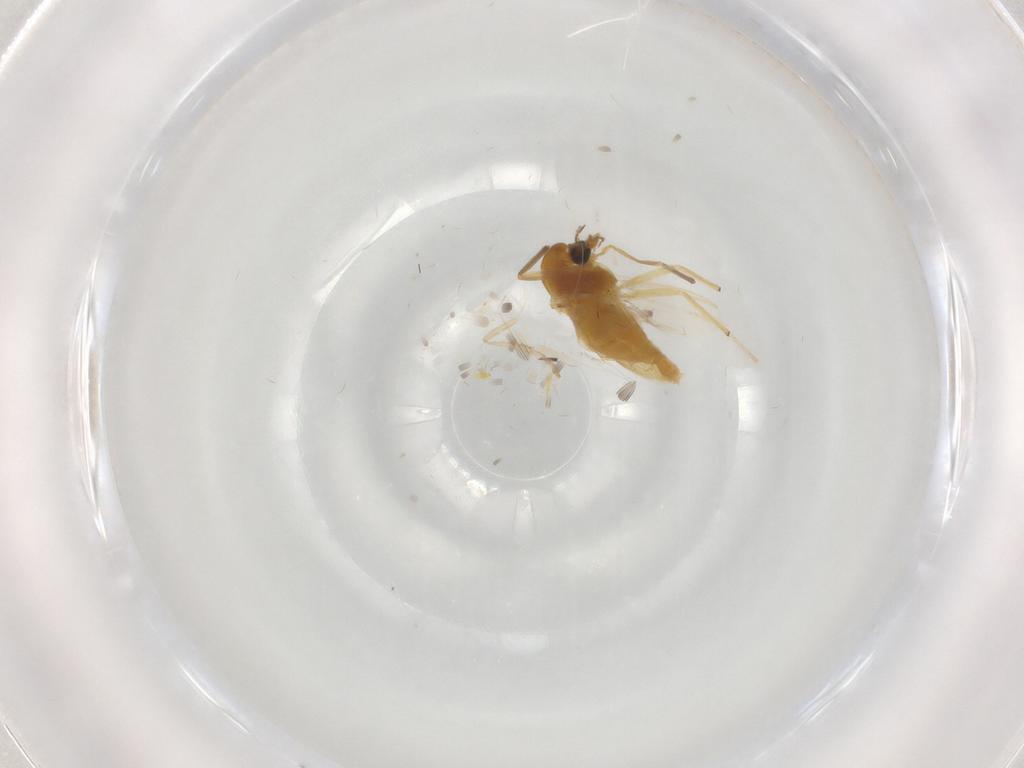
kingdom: Animalia
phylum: Arthropoda
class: Insecta
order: Diptera
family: Chironomidae
